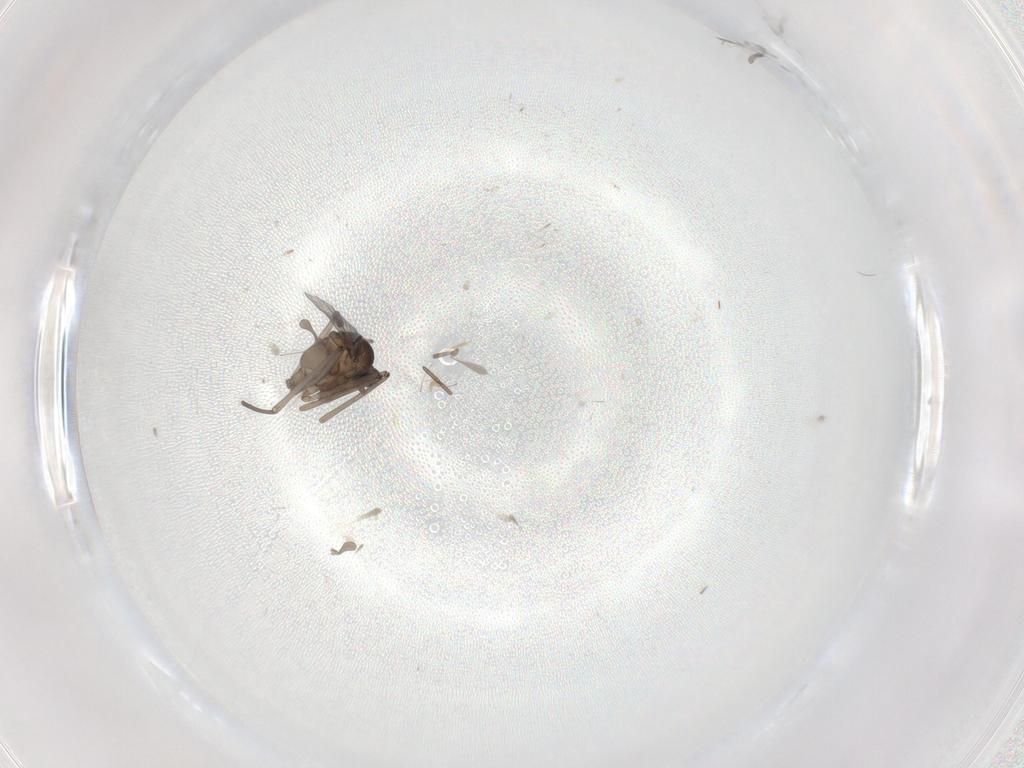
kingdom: Animalia
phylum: Arthropoda
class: Insecta
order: Diptera
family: Cecidomyiidae
